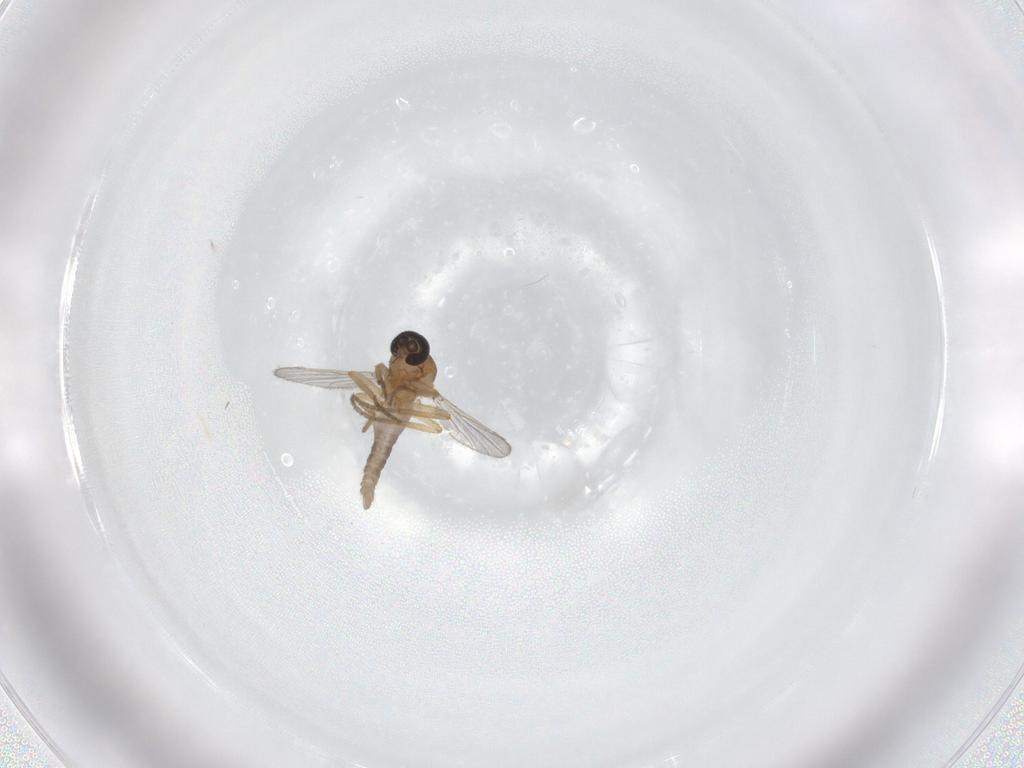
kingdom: Animalia
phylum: Arthropoda
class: Insecta
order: Diptera
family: Ceratopogonidae
